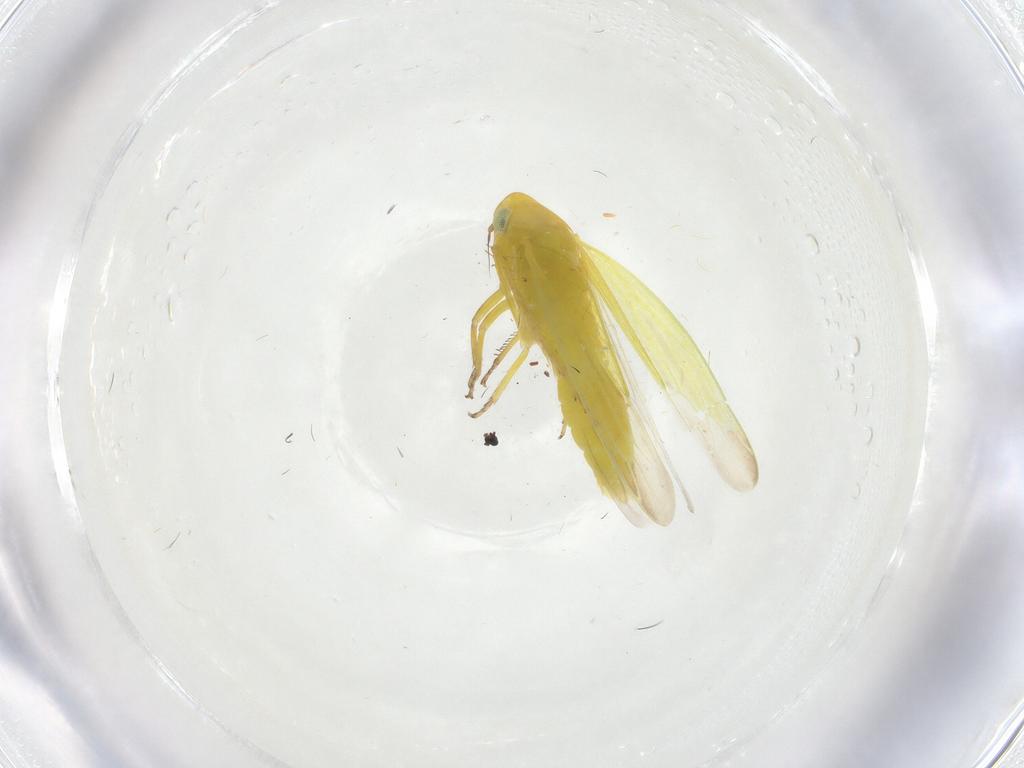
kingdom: Animalia
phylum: Arthropoda
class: Insecta
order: Hemiptera
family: Cicadellidae
